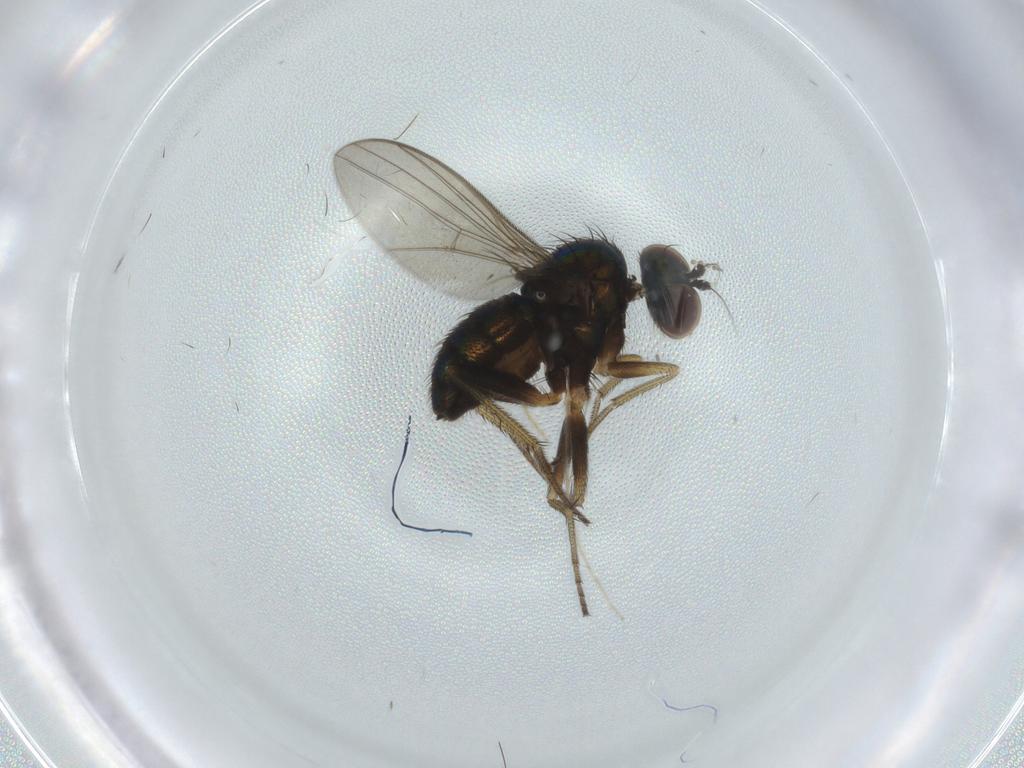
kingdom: Animalia
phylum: Arthropoda
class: Insecta
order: Diptera
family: Dolichopodidae
